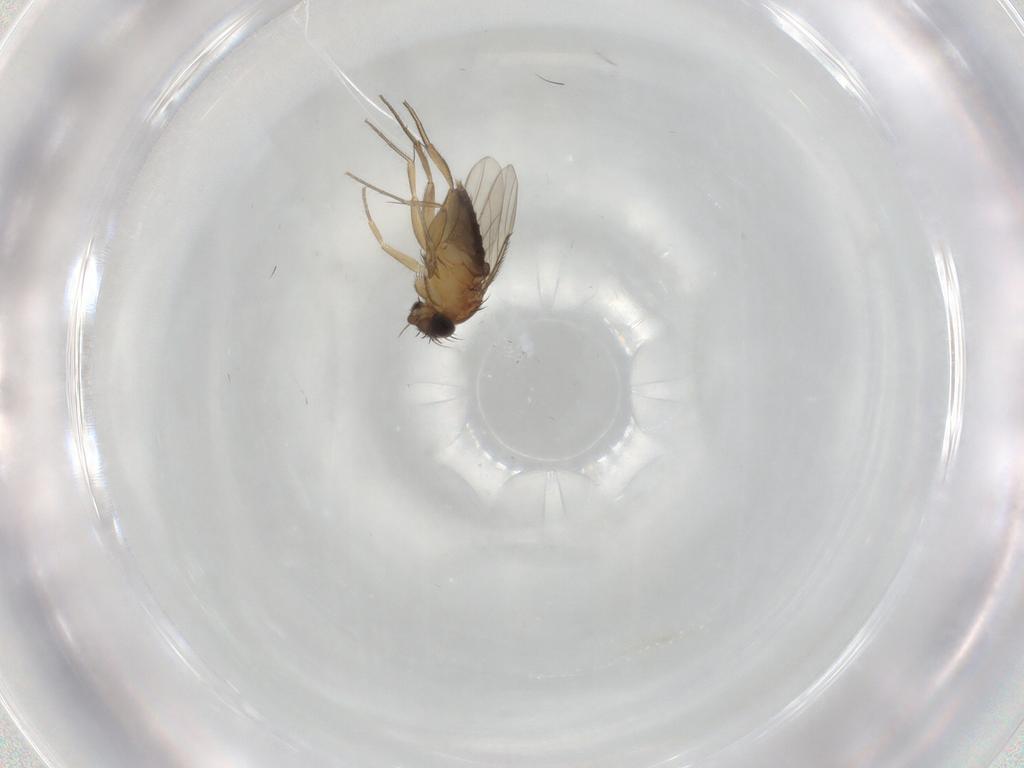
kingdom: Animalia
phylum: Arthropoda
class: Insecta
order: Diptera
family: Phoridae
